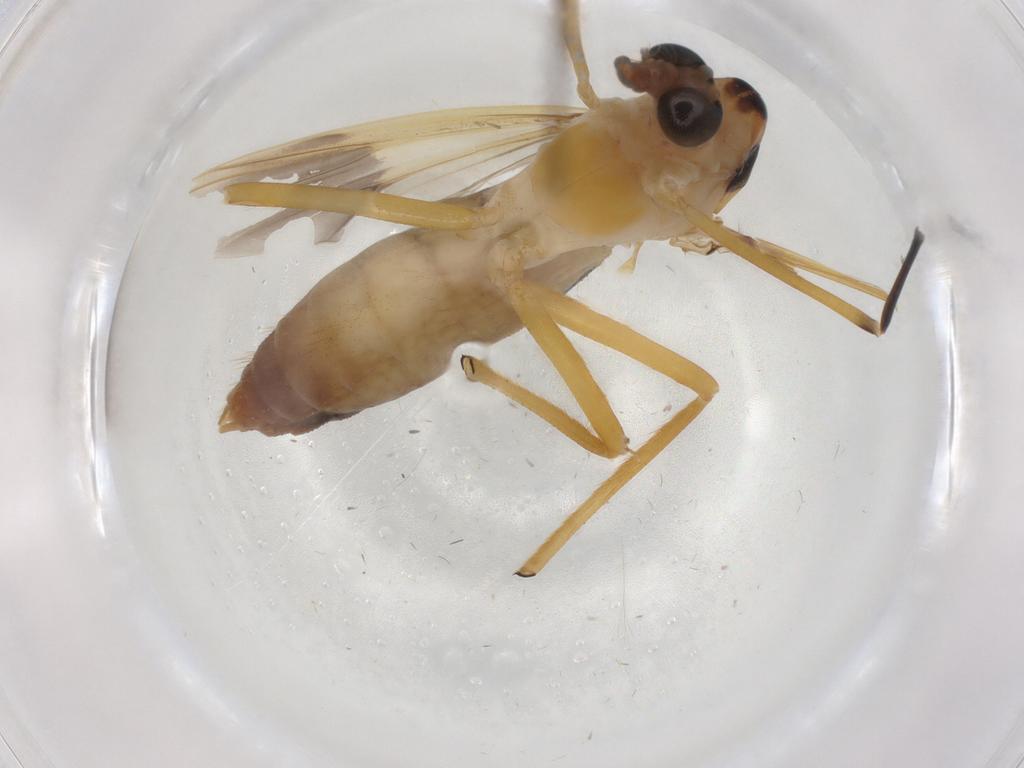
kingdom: Animalia
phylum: Arthropoda
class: Insecta
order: Diptera
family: Chironomidae
